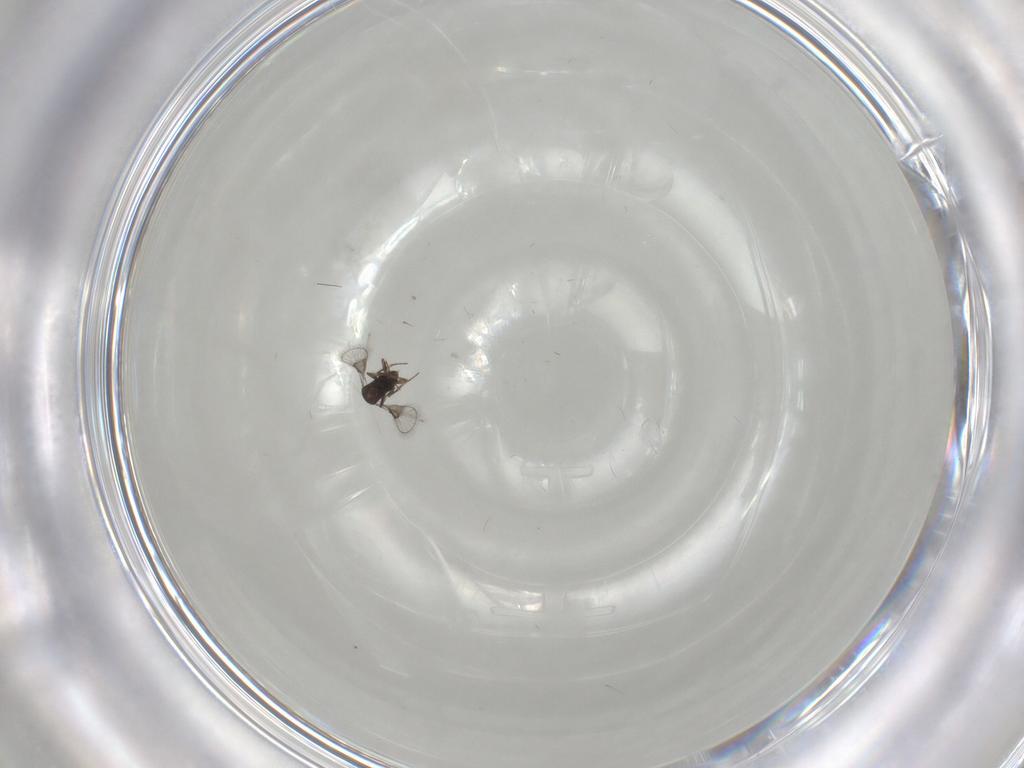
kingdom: Animalia
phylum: Arthropoda
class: Insecta
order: Hymenoptera
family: Trichogrammatidae
